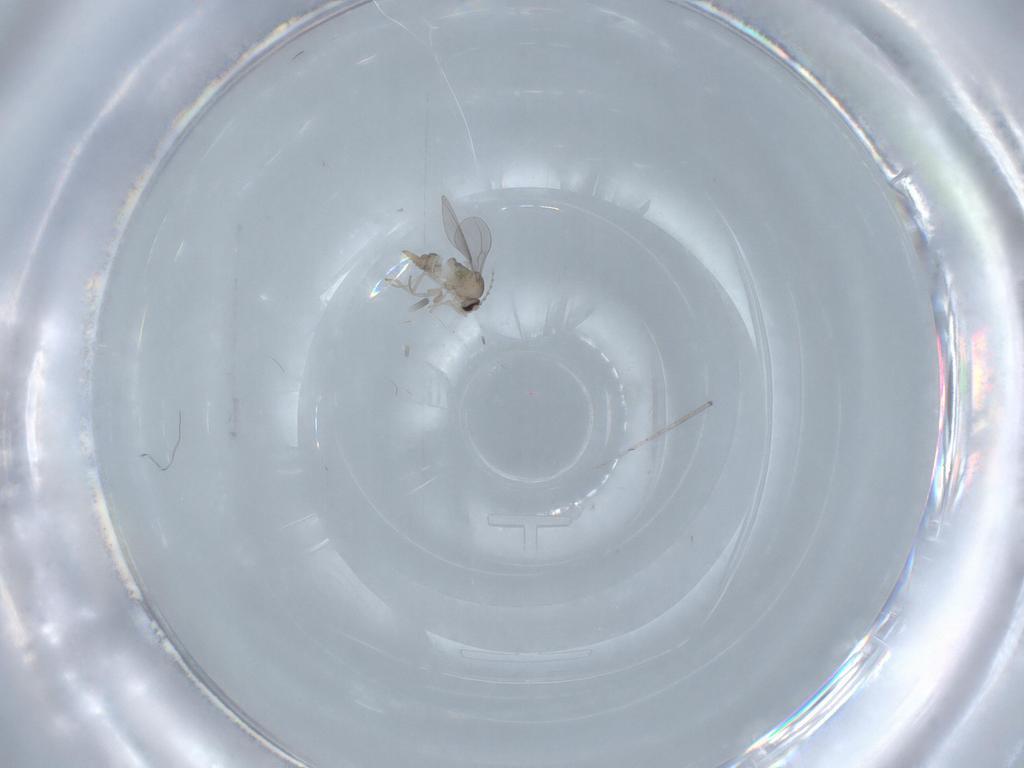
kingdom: Animalia
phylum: Arthropoda
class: Insecta
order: Diptera
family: Cecidomyiidae
